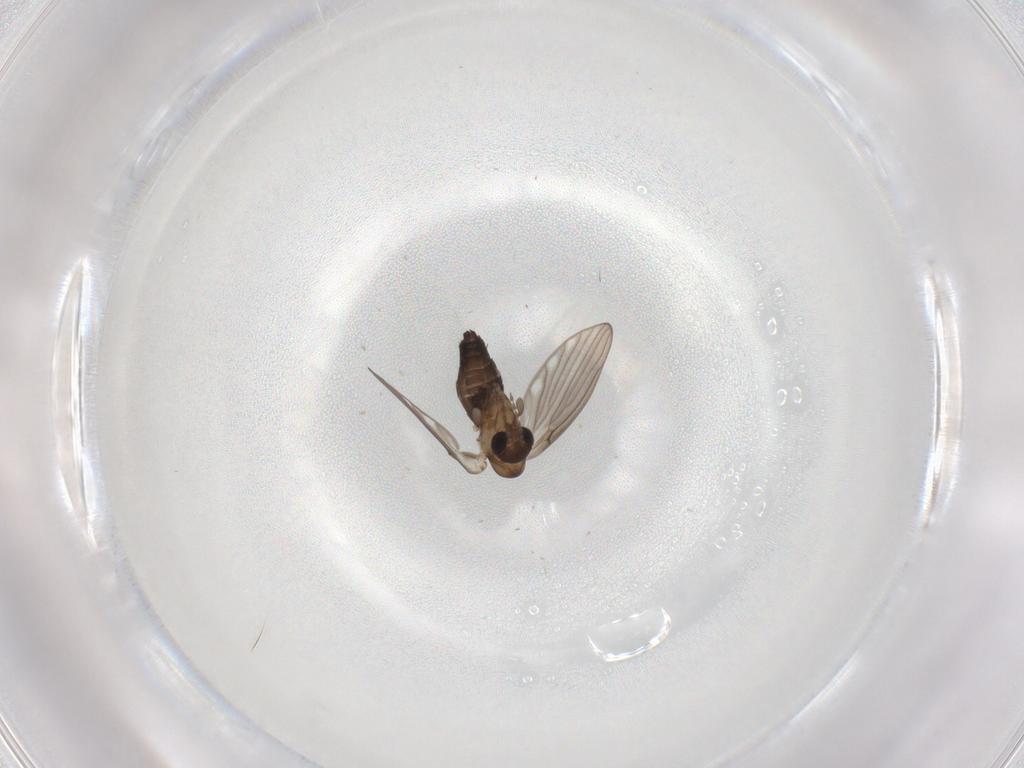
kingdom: Animalia
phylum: Arthropoda
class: Insecta
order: Diptera
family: Psychodidae
